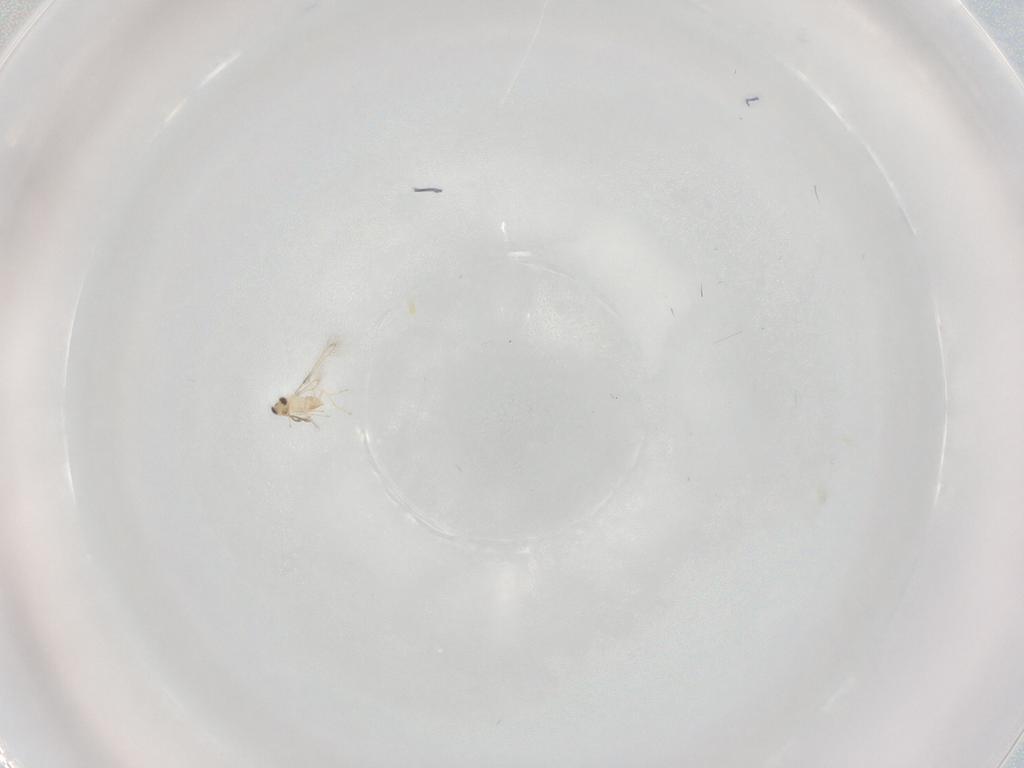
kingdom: Animalia
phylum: Arthropoda
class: Insecta
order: Hymenoptera
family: Mymaridae
